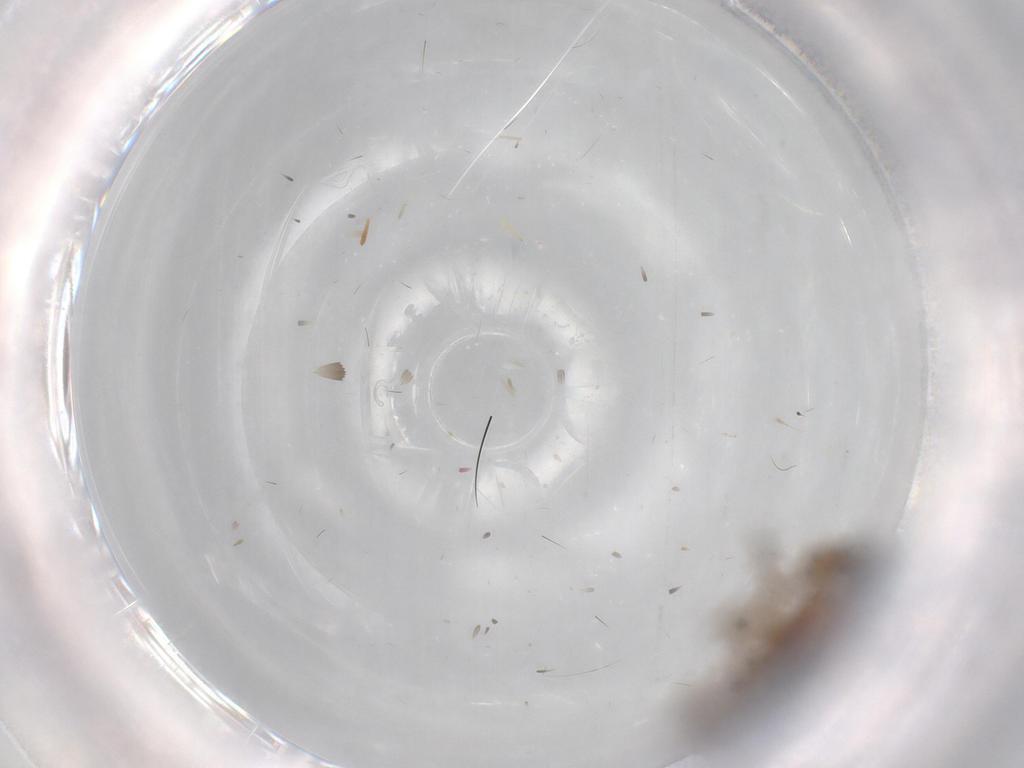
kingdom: Animalia
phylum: Arthropoda
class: Insecta
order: Diptera
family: Empididae
